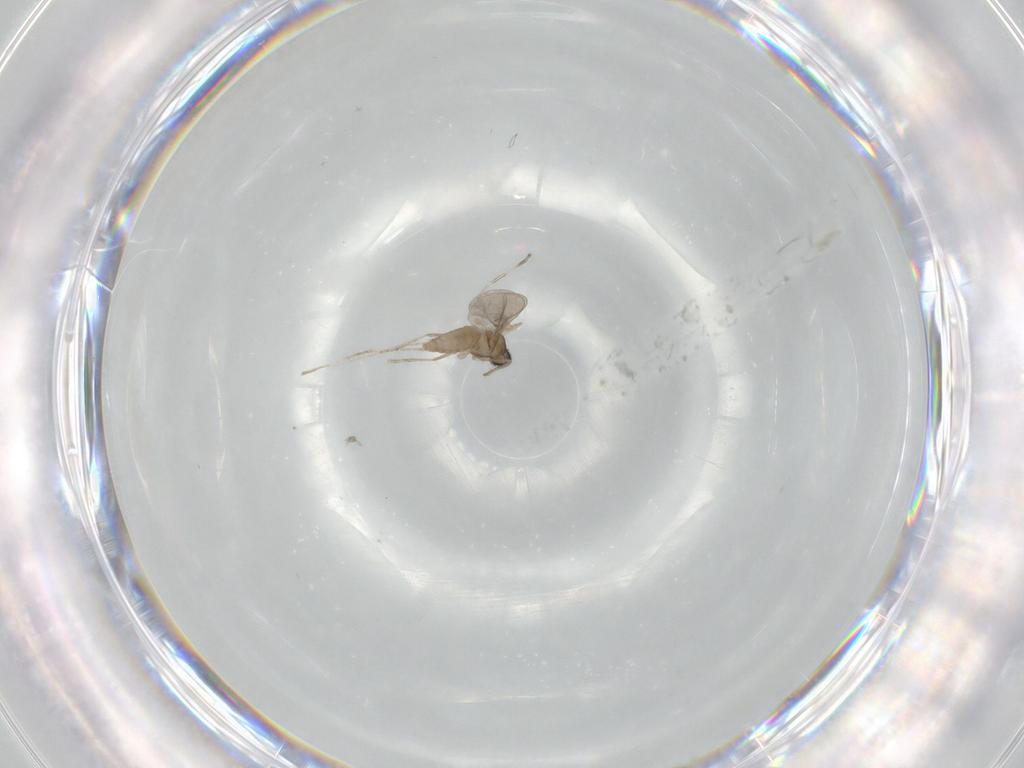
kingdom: Animalia
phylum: Arthropoda
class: Insecta
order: Diptera
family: Cecidomyiidae
